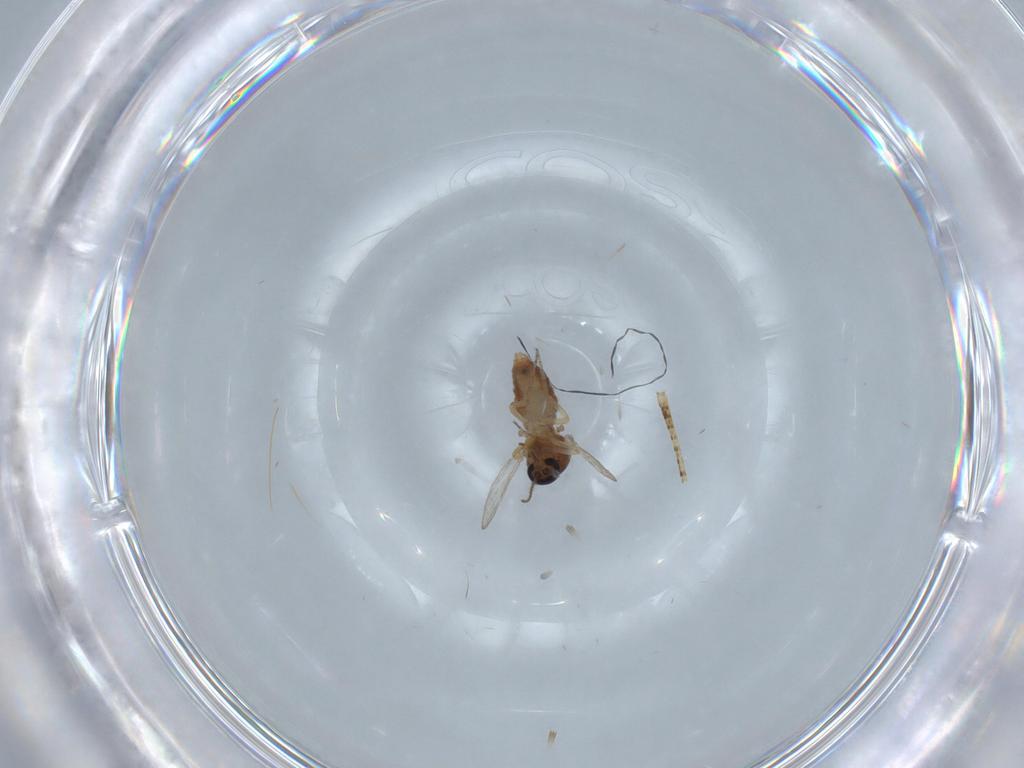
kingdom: Animalia
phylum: Arthropoda
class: Insecta
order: Diptera
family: Ceratopogonidae
